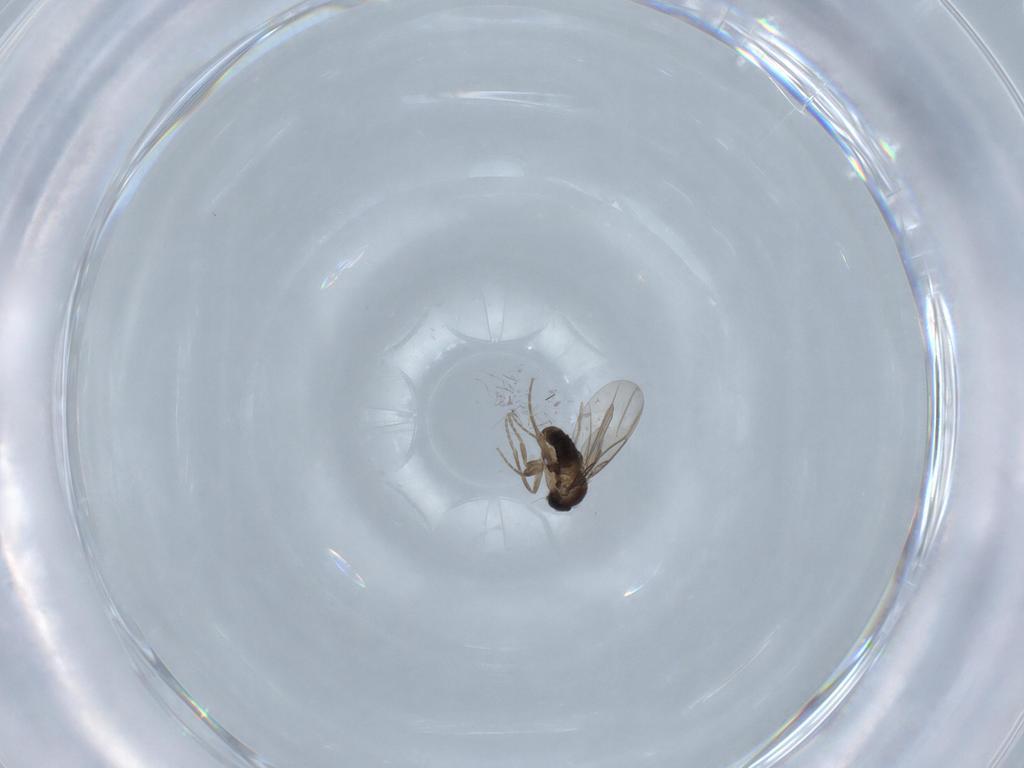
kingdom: Animalia
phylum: Arthropoda
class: Insecta
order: Diptera
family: Phoridae
